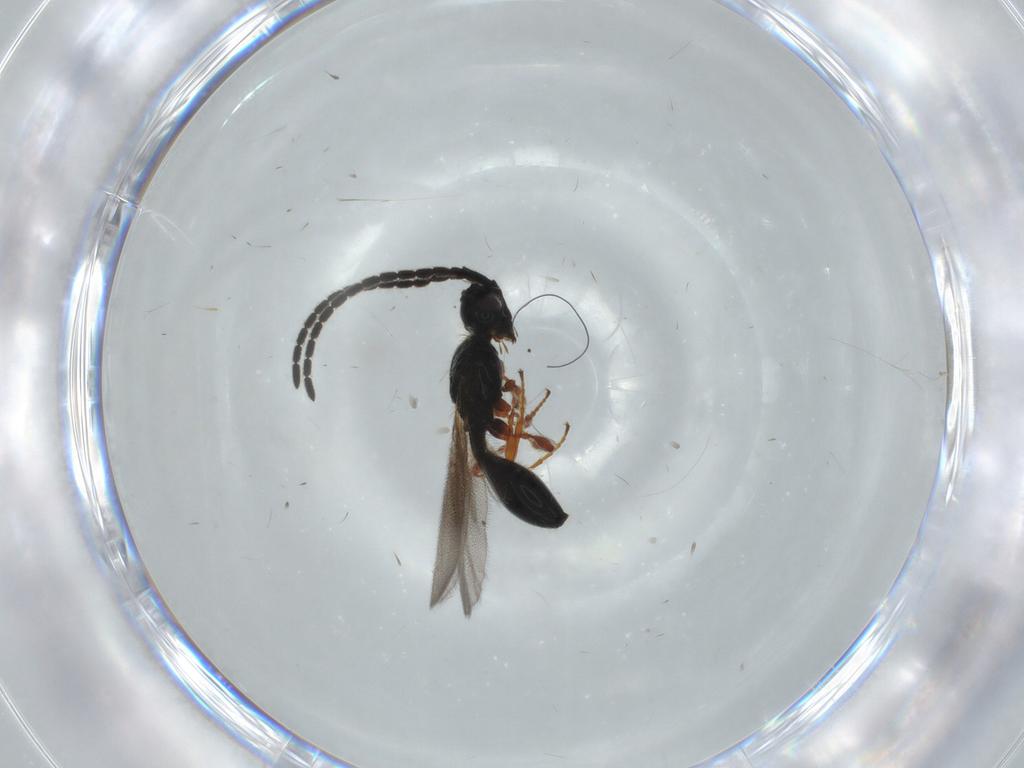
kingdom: Animalia
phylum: Arthropoda
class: Insecta
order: Hymenoptera
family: Diapriidae
